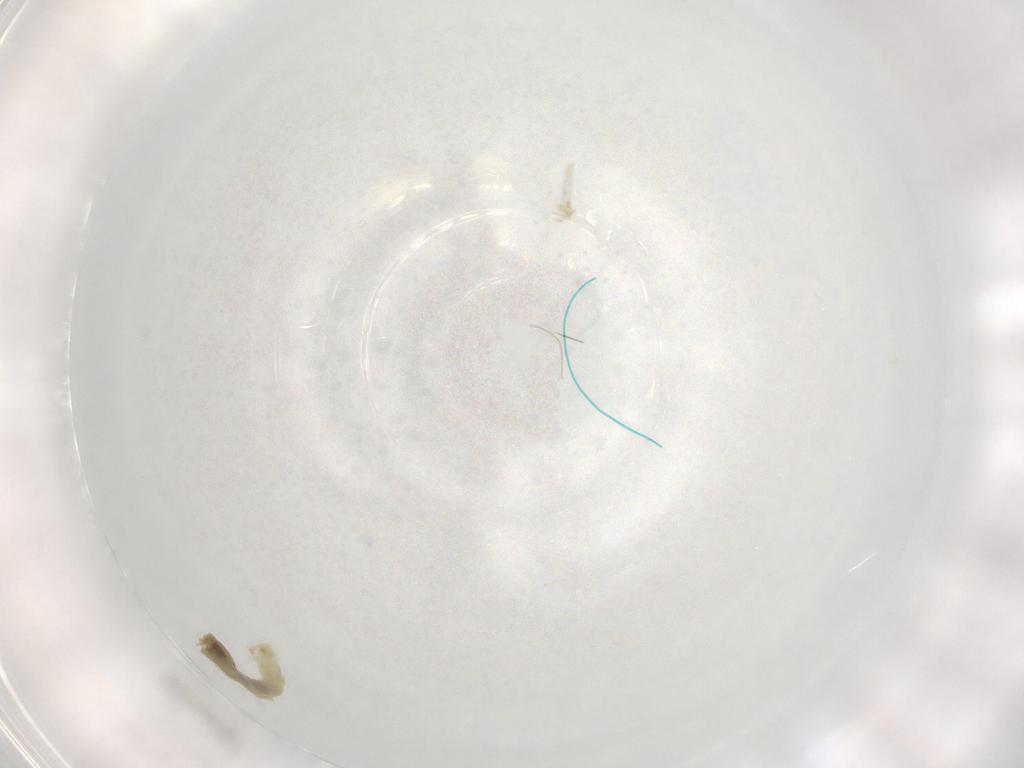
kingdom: Animalia
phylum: Arthropoda
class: Insecta
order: Diptera
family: Chironomidae
